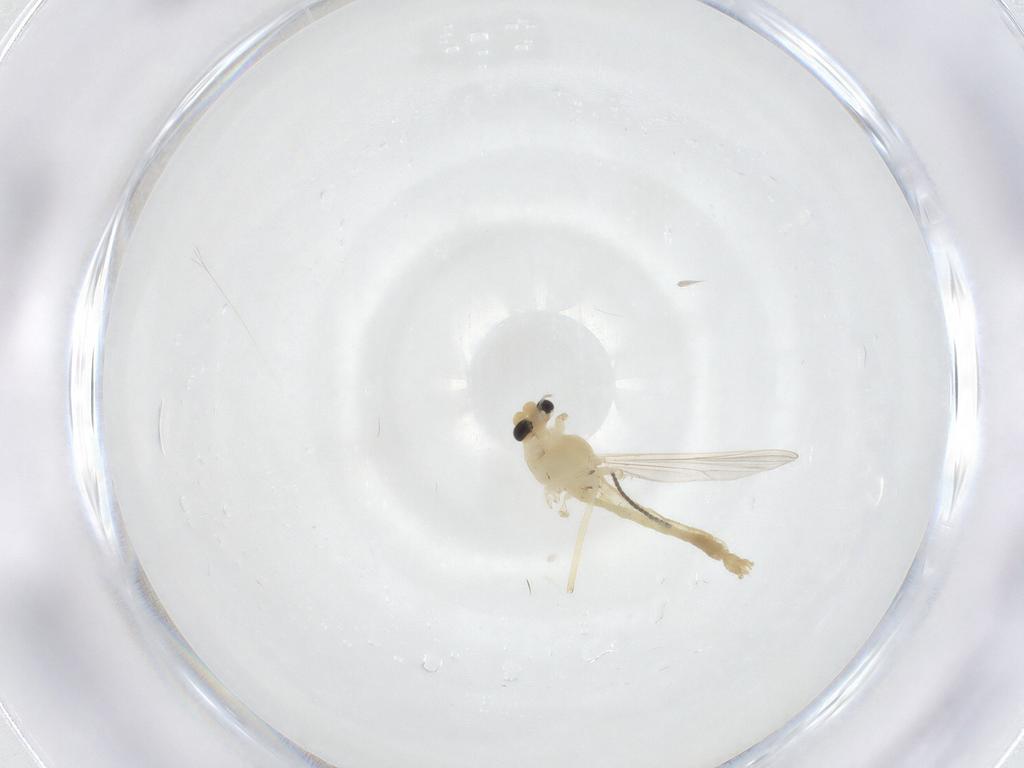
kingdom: Animalia
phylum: Arthropoda
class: Insecta
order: Diptera
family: Chironomidae
